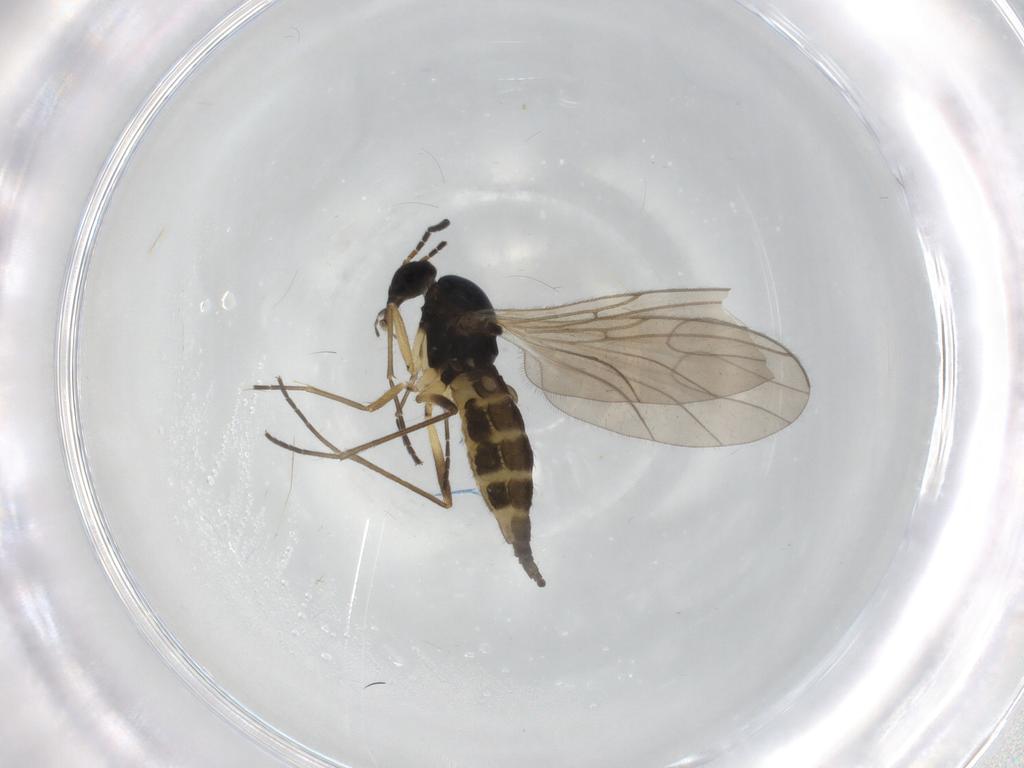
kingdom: Animalia
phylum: Arthropoda
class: Insecta
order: Diptera
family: Sciaridae
